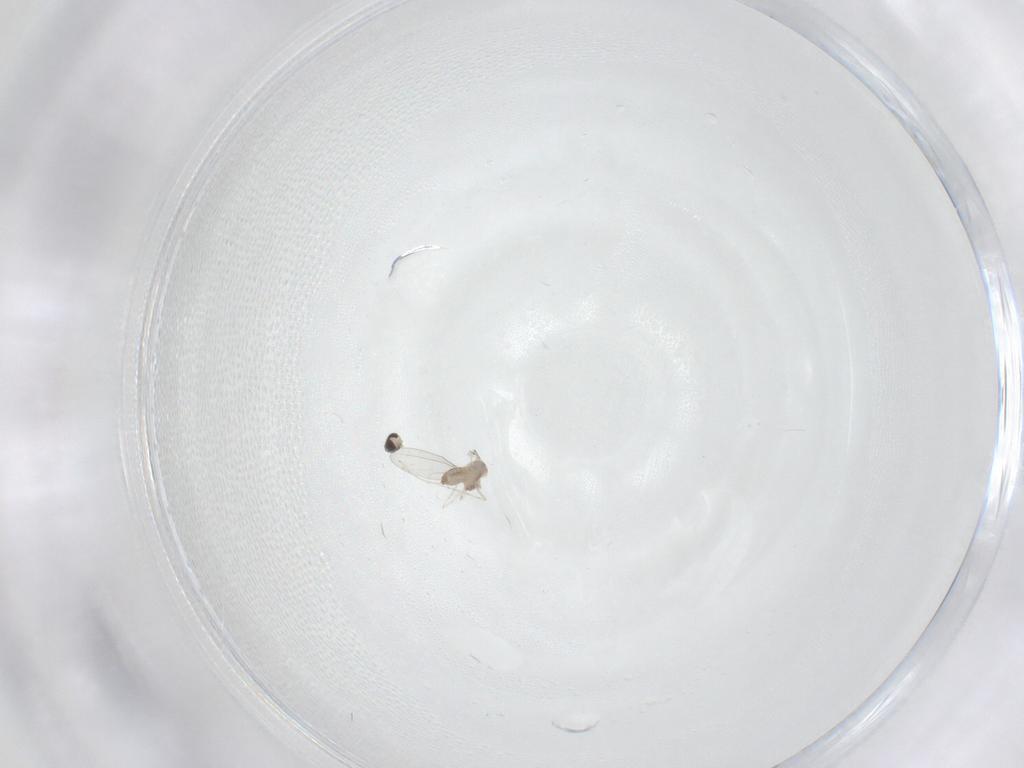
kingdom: Animalia
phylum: Arthropoda
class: Insecta
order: Diptera
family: Cecidomyiidae
